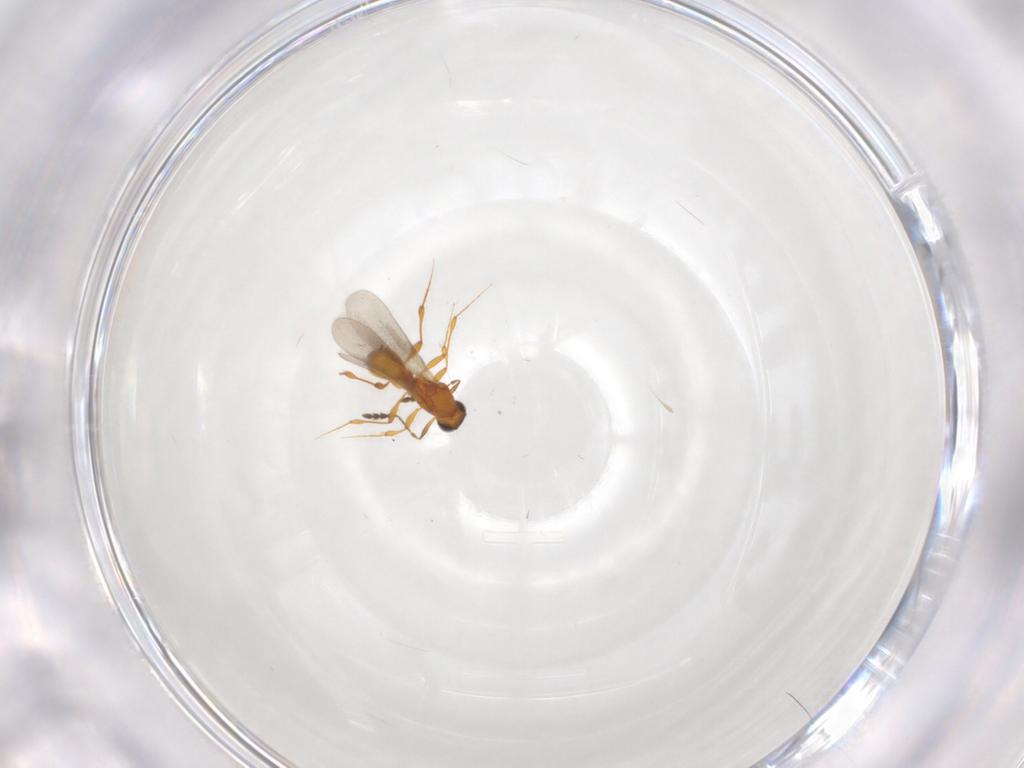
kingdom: Animalia
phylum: Arthropoda
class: Insecta
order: Hymenoptera
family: Platygastridae
